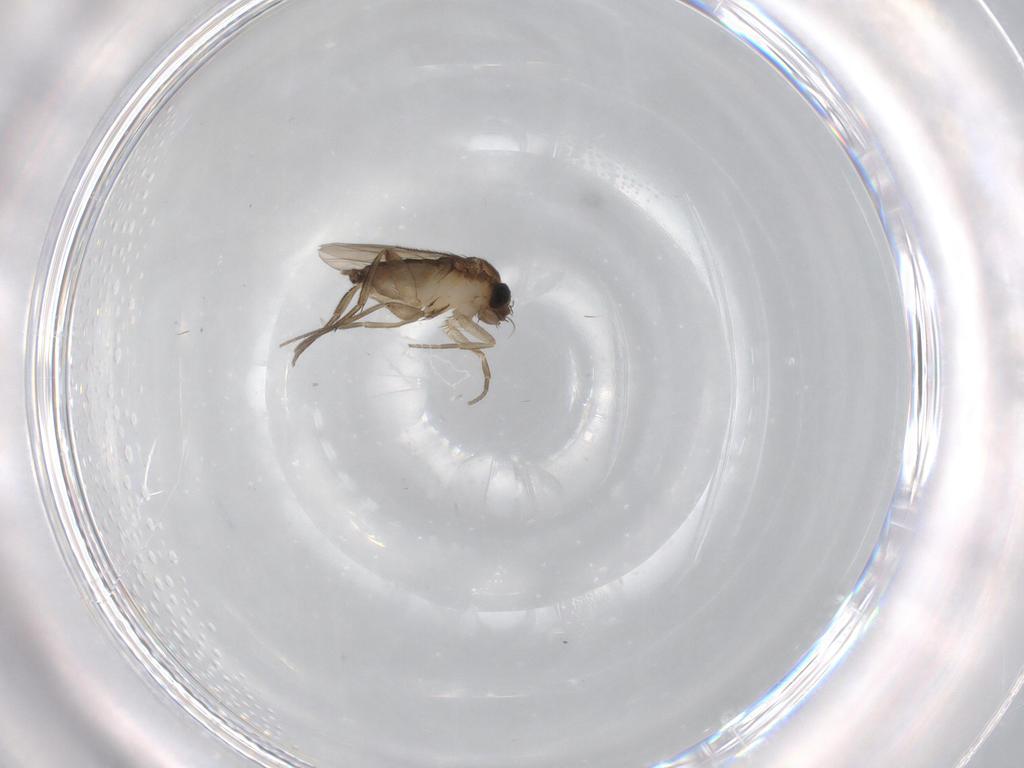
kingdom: Animalia
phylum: Arthropoda
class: Insecta
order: Diptera
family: Phoridae
